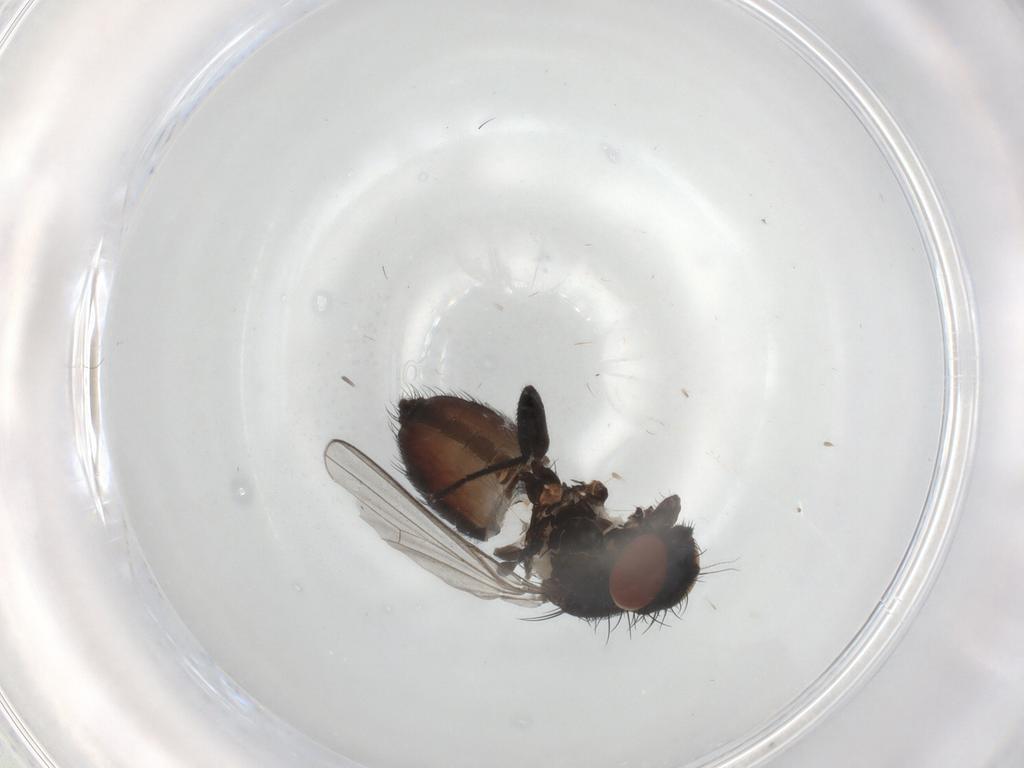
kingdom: Animalia
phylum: Arthropoda
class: Insecta
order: Diptera
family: Milichiidae
